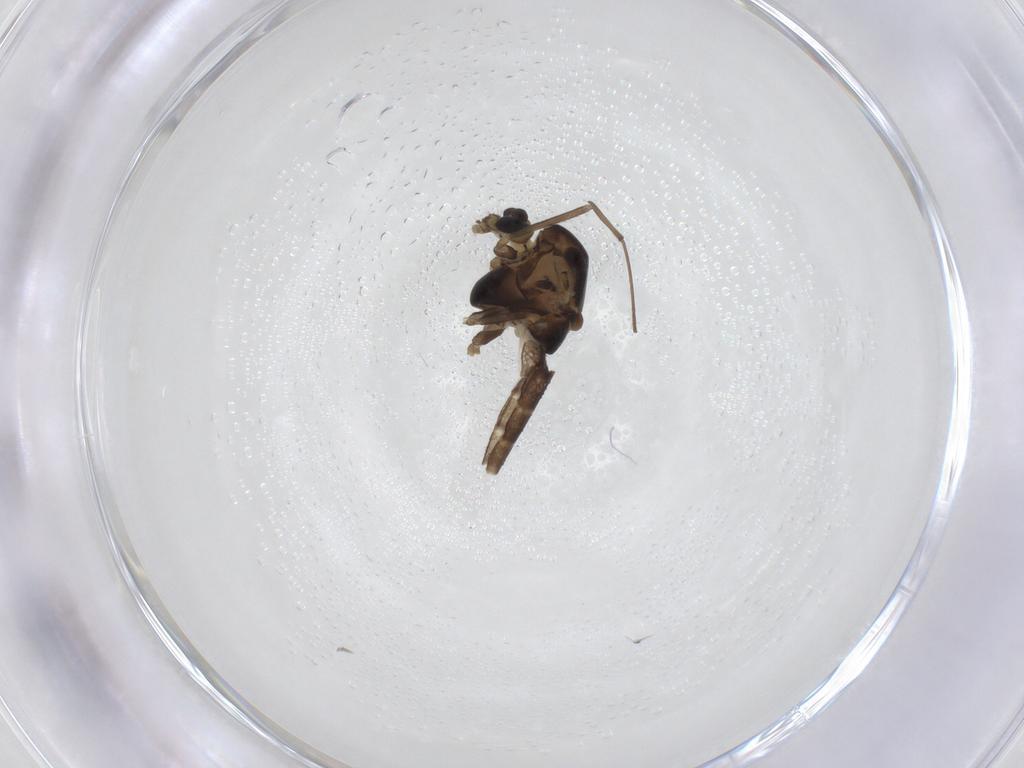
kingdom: Animalia
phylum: Arthropoda
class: Insecta
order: Diptera
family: Chironomidae
